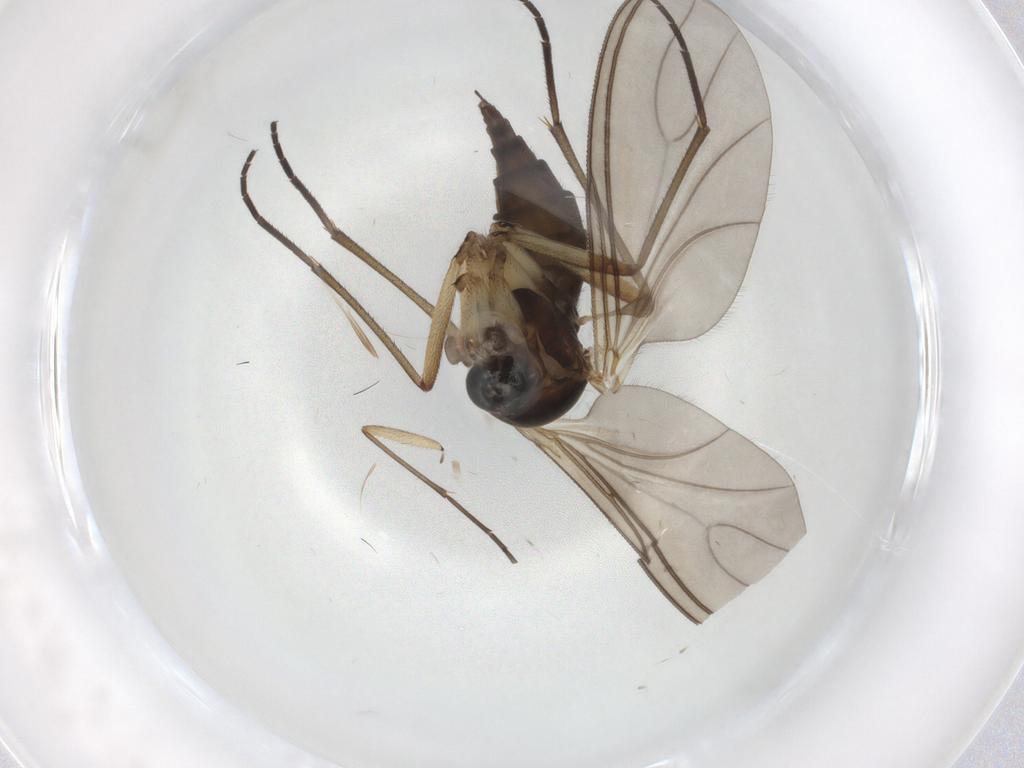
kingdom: Animalia
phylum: Arthropoda
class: Insecta
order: Diptera
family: Sciaridae
